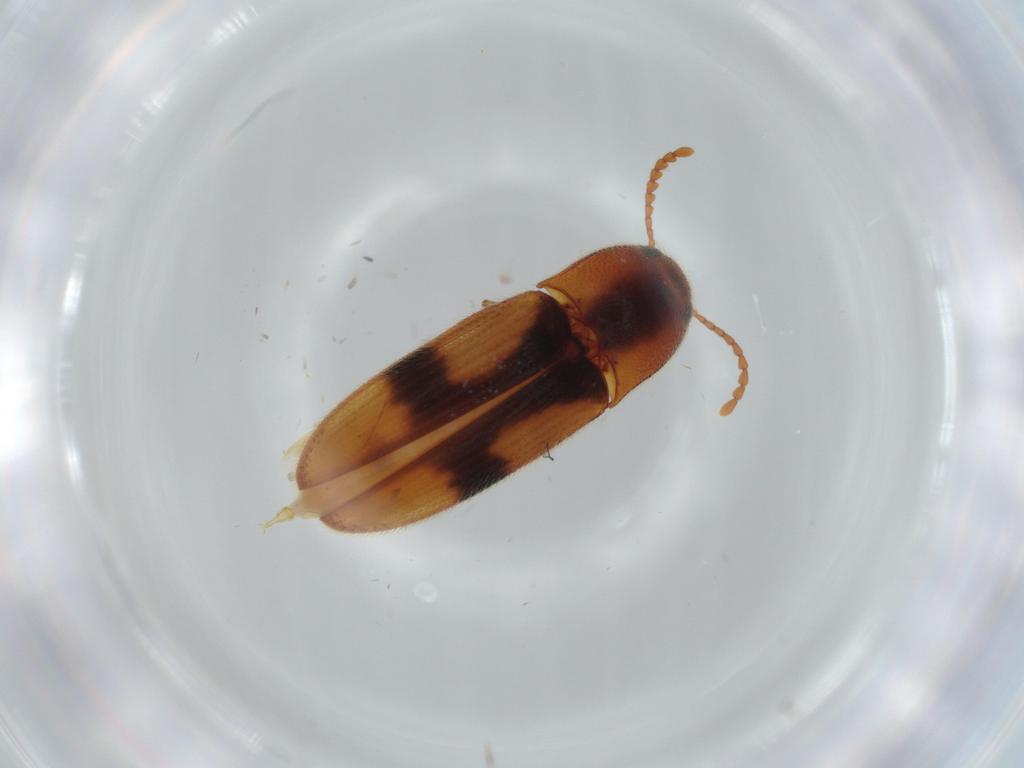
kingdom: Animalia
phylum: Arthropoda
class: Insecta
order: Coleoptera
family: Elateridae
